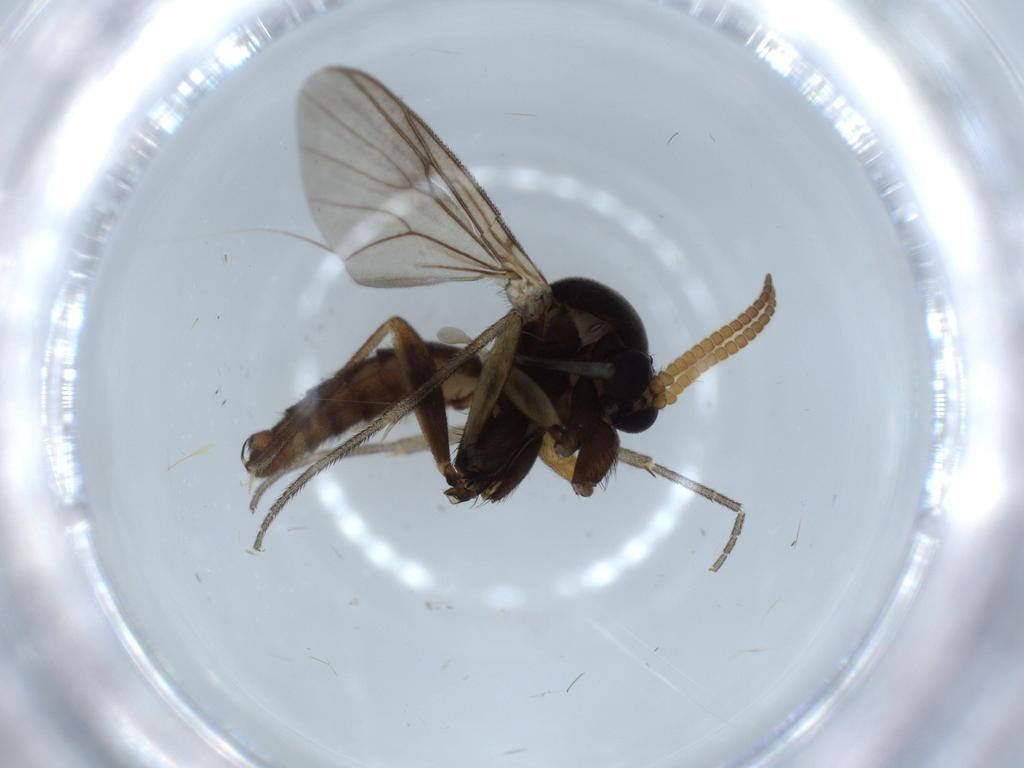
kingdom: Animalia
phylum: Arthropoda
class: Insecta
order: Diptera
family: Mycetophilidae
